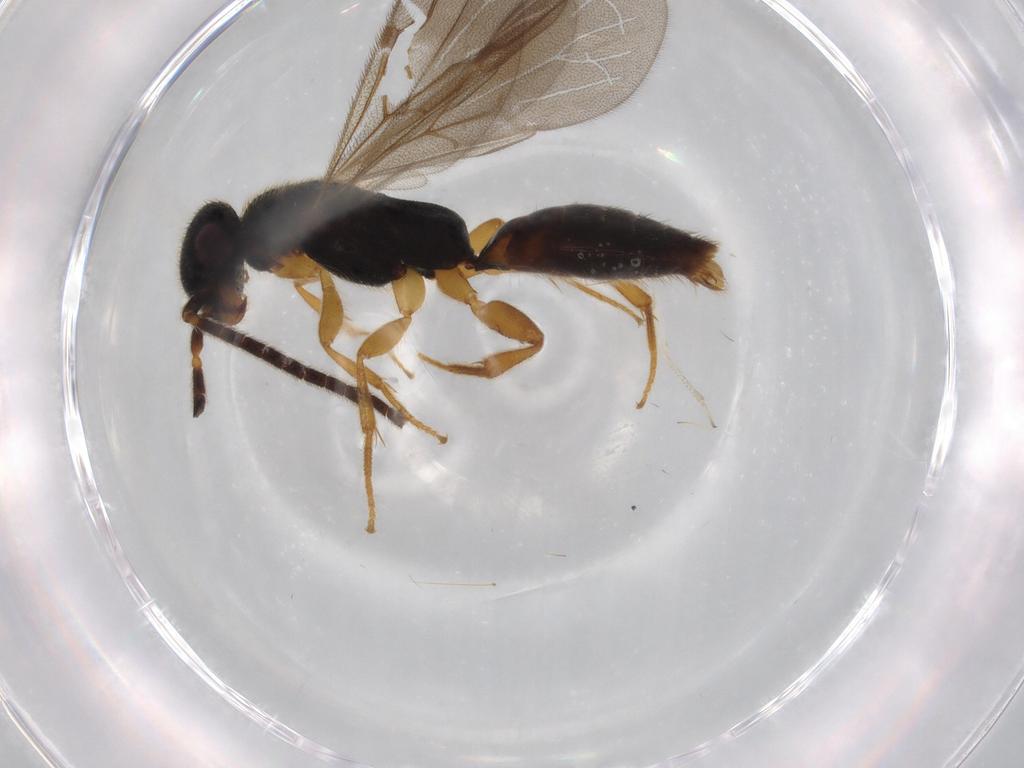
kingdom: Animalia
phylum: Arthropoda
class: Insecta
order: Hymenoptera
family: Bethylidae
